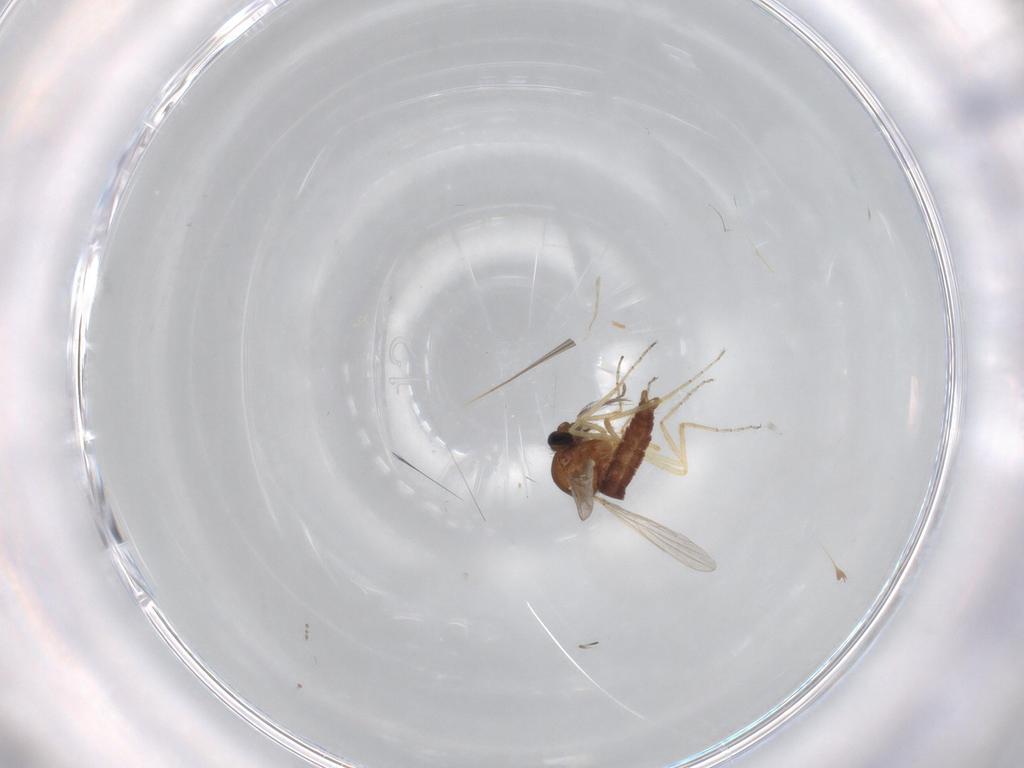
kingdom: Animalia
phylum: Arthropoda
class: Insecta
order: Diptera
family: Ceratopogonidae
